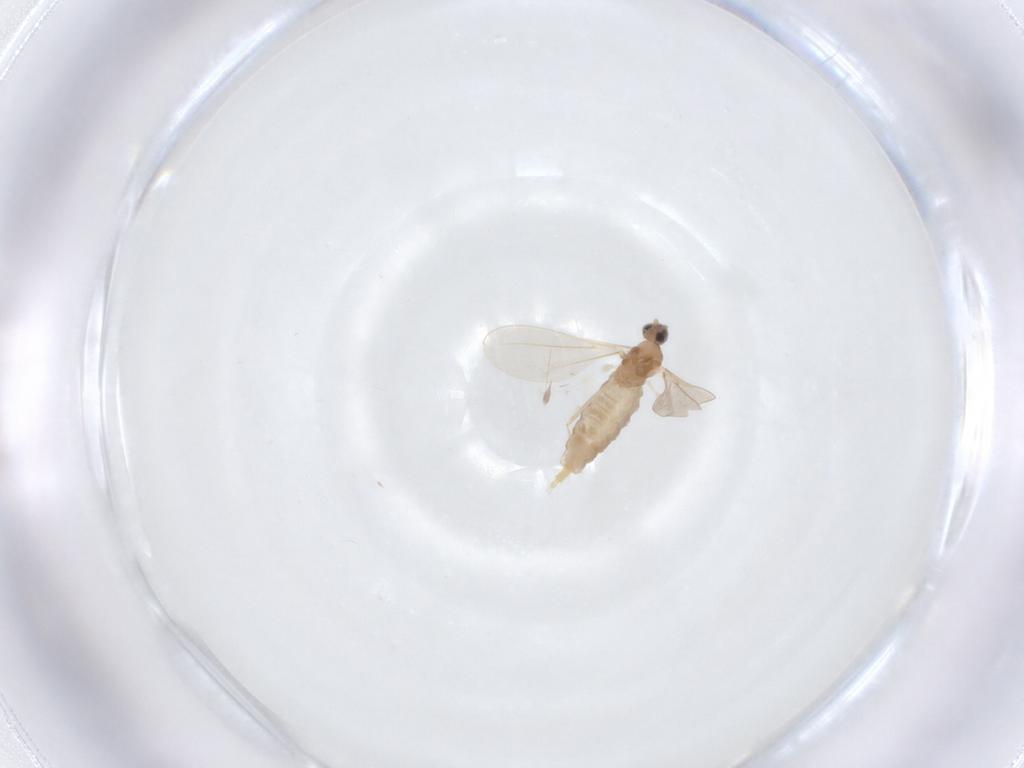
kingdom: Animalia
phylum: Arthropoda
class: Insecta
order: Diptera
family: Cecidomyiidae
